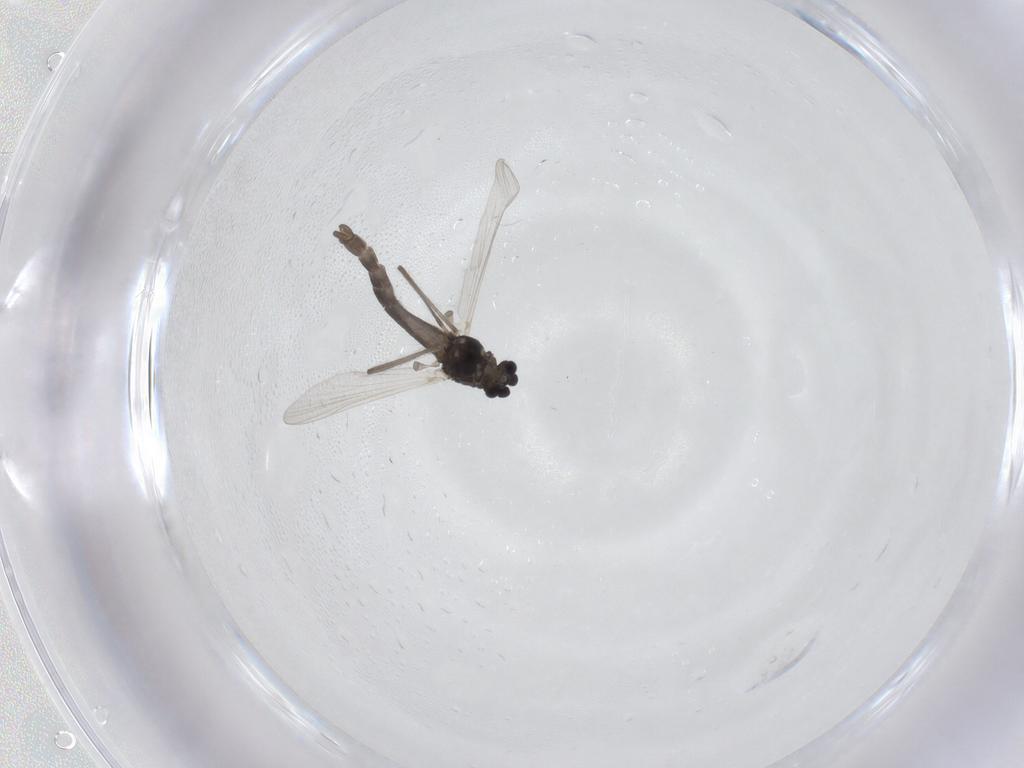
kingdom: Animalia
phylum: Arthropoda
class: Insecta
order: Diptera
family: Chironomidae
